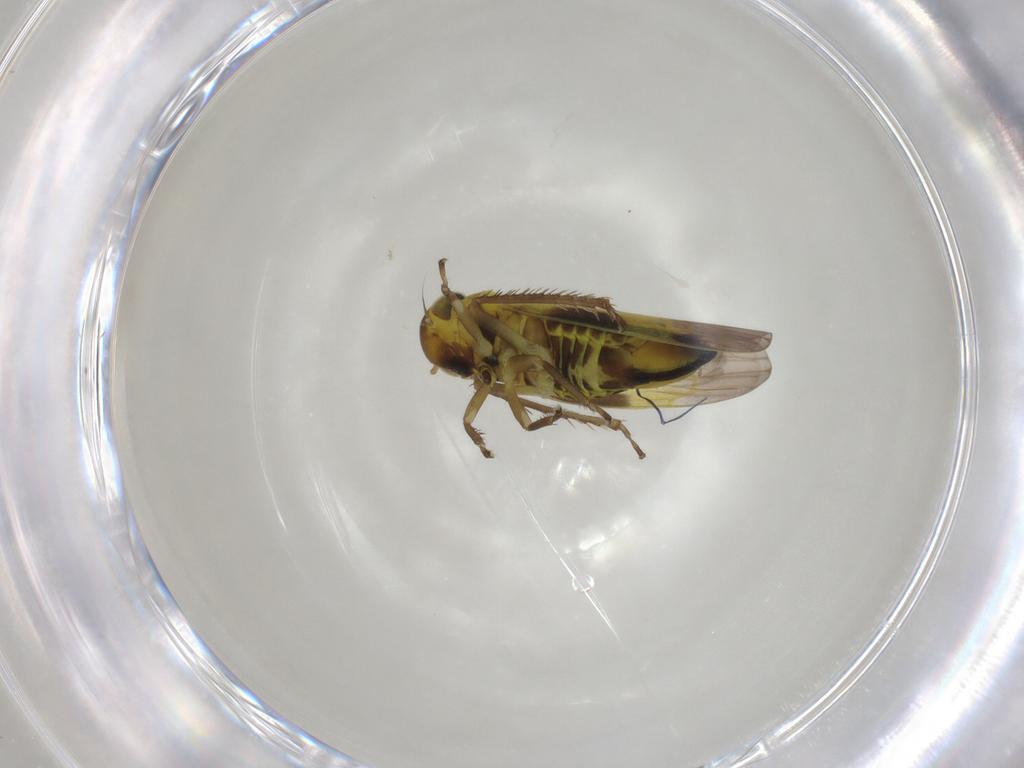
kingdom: Animalia
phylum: Arthropoda
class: Insecta
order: Hemiptera
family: Cicadellidae
